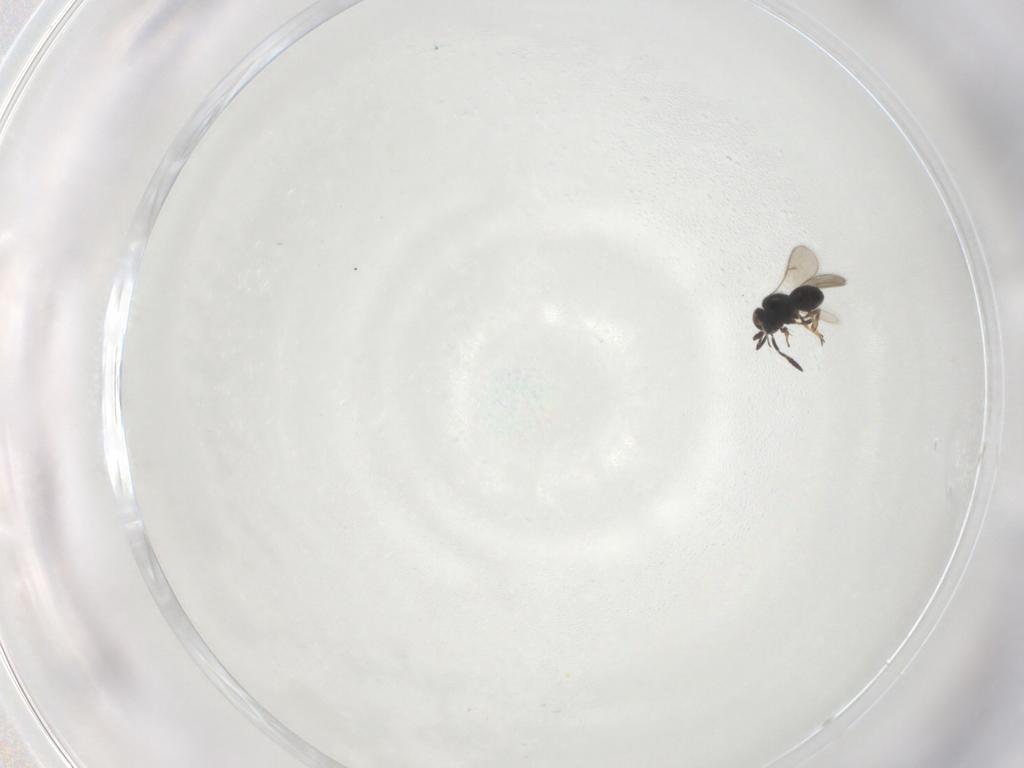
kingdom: Animalia
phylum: Arthropoda
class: Insecta
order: Hymenoptera
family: Scelionidae
